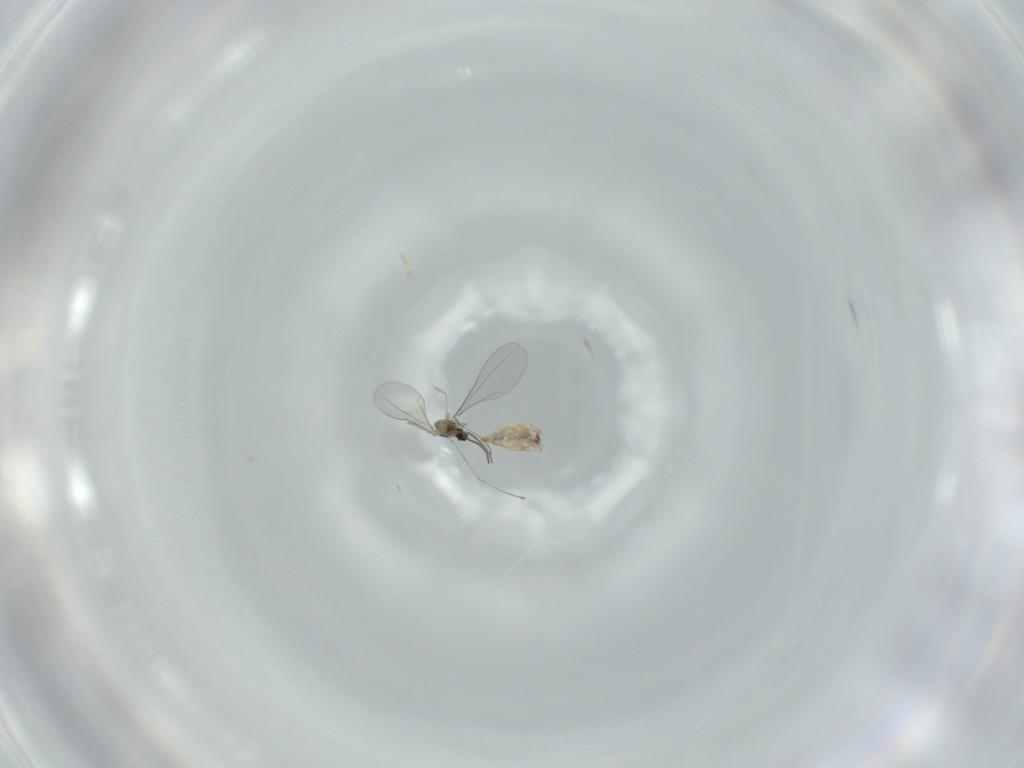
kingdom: Animalia
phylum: Arthropoda
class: Insecta
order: Diptera
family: Cecidomyiidae
